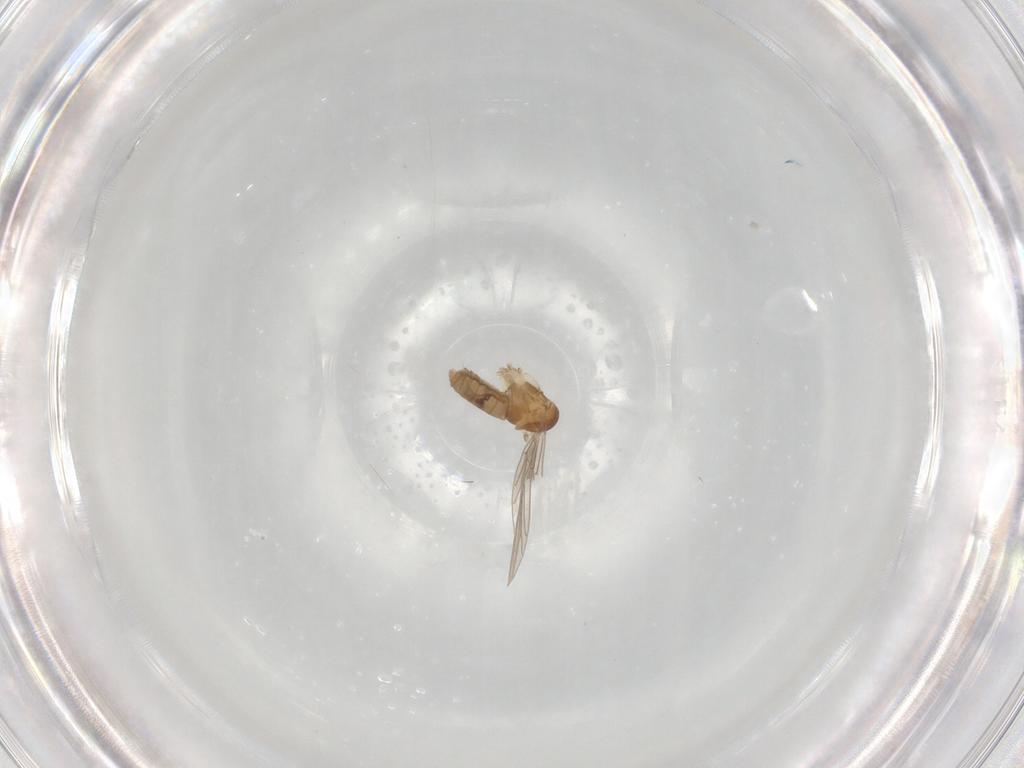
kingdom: Animalia
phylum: Arthropoda
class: Insecta
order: Diptera
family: Psychodidae
